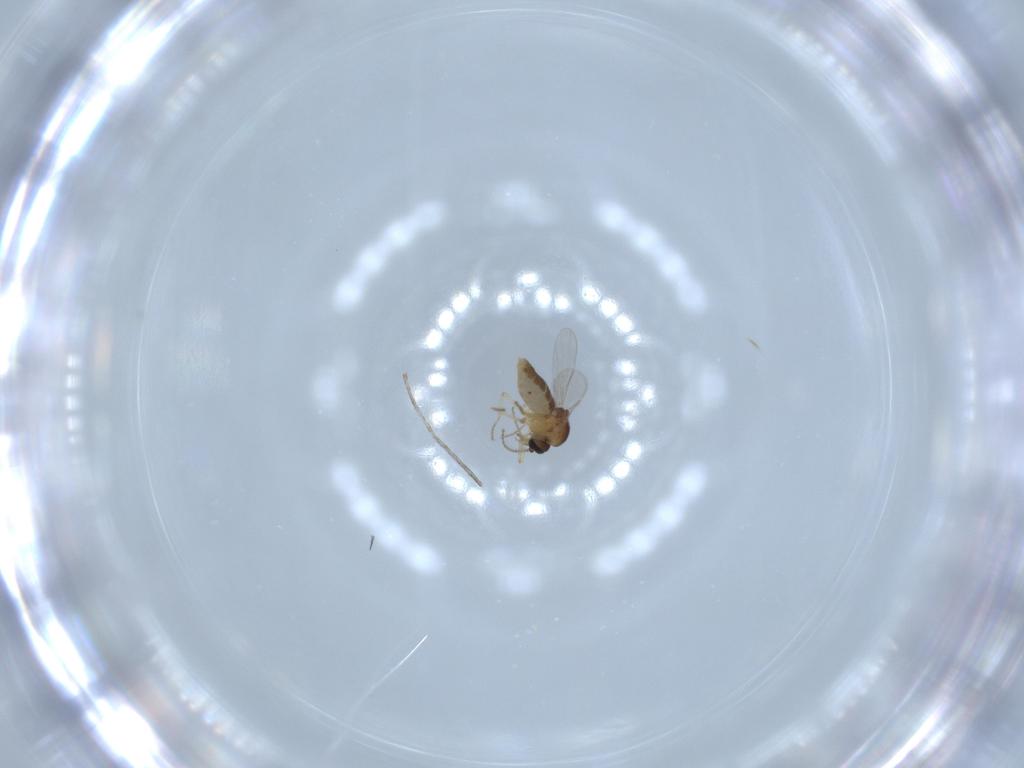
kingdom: Animalia
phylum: Arthropoda
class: Insecta
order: Diptera
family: Ceratopogonidae
